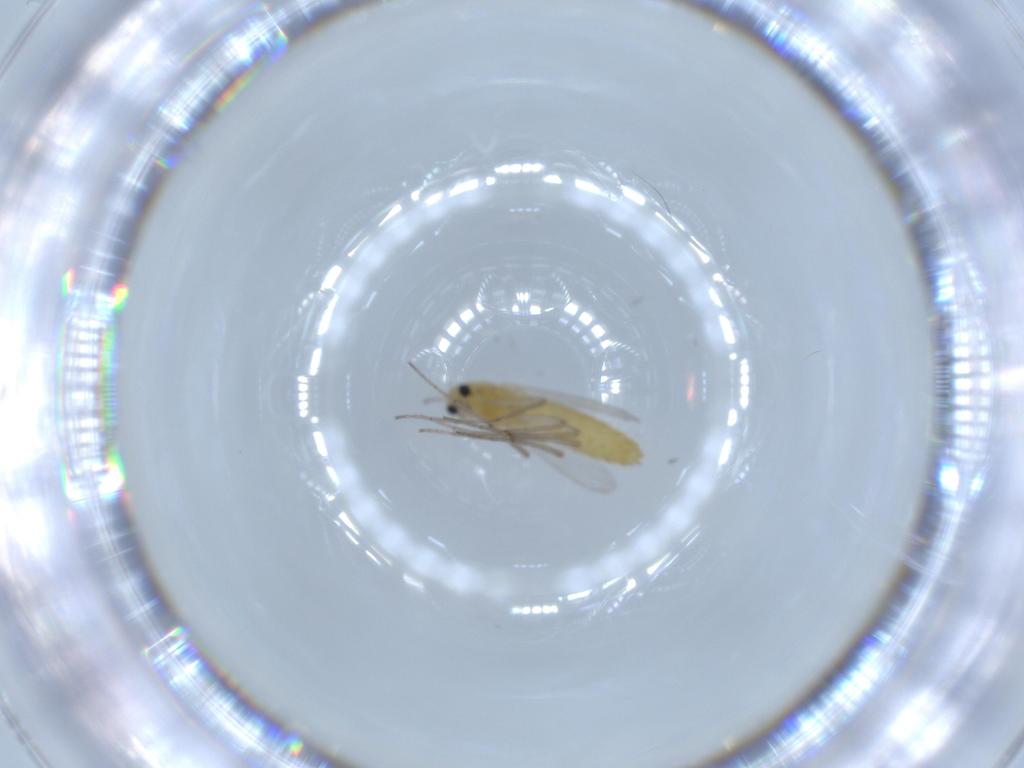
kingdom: Animalia
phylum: Arthropoda
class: Insecta
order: Diptera
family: Chironomidae
